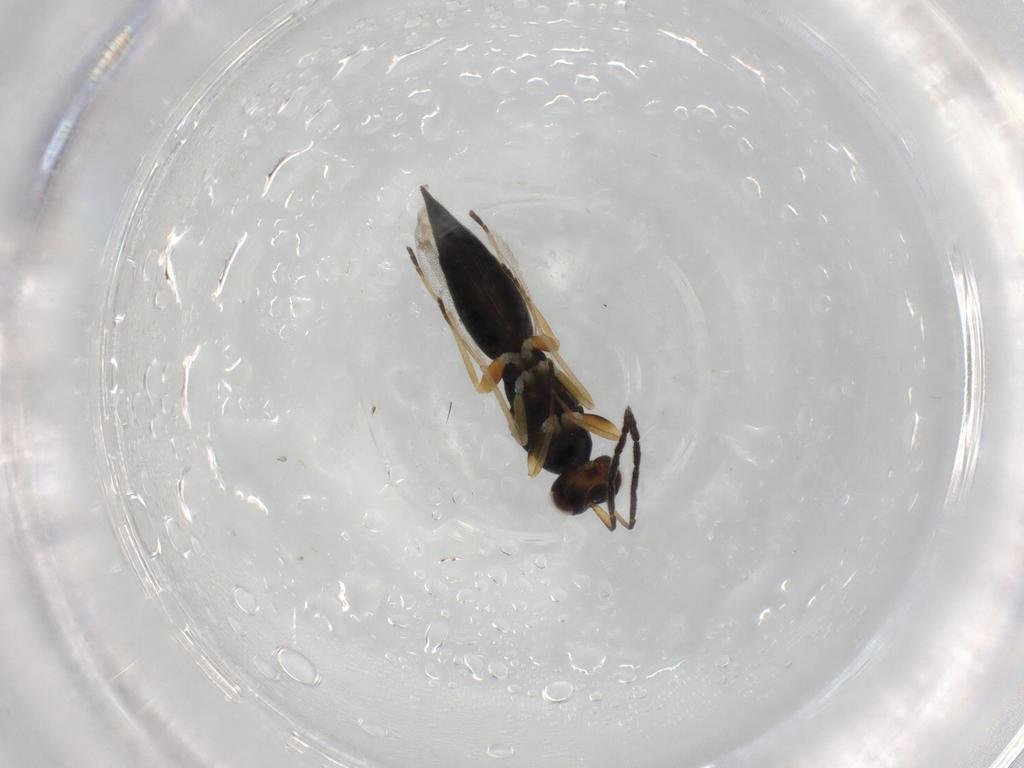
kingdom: Animalia
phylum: Arthropoda
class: Insecta
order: Hymenoptera
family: Eulophidae
